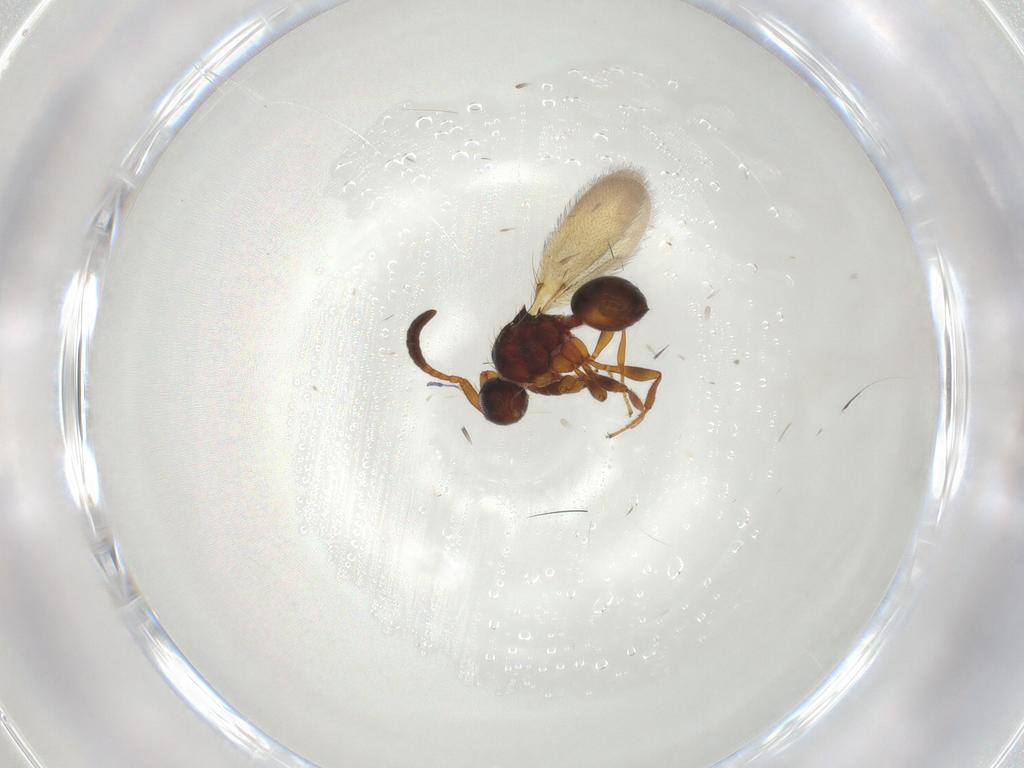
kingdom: Animalia
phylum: Arthropoda
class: Insecta
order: Hymenoptera
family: Diapriidae
